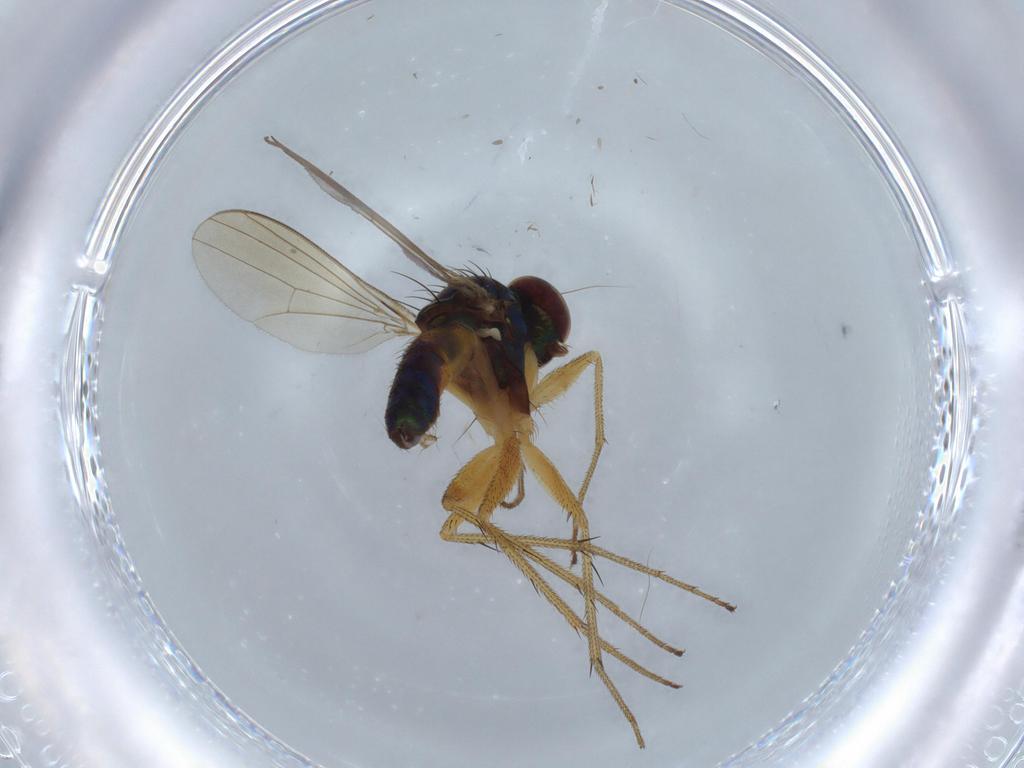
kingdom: Animalia
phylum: Arthropoda
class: Insecta
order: Diptera
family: Dolichopodidae
